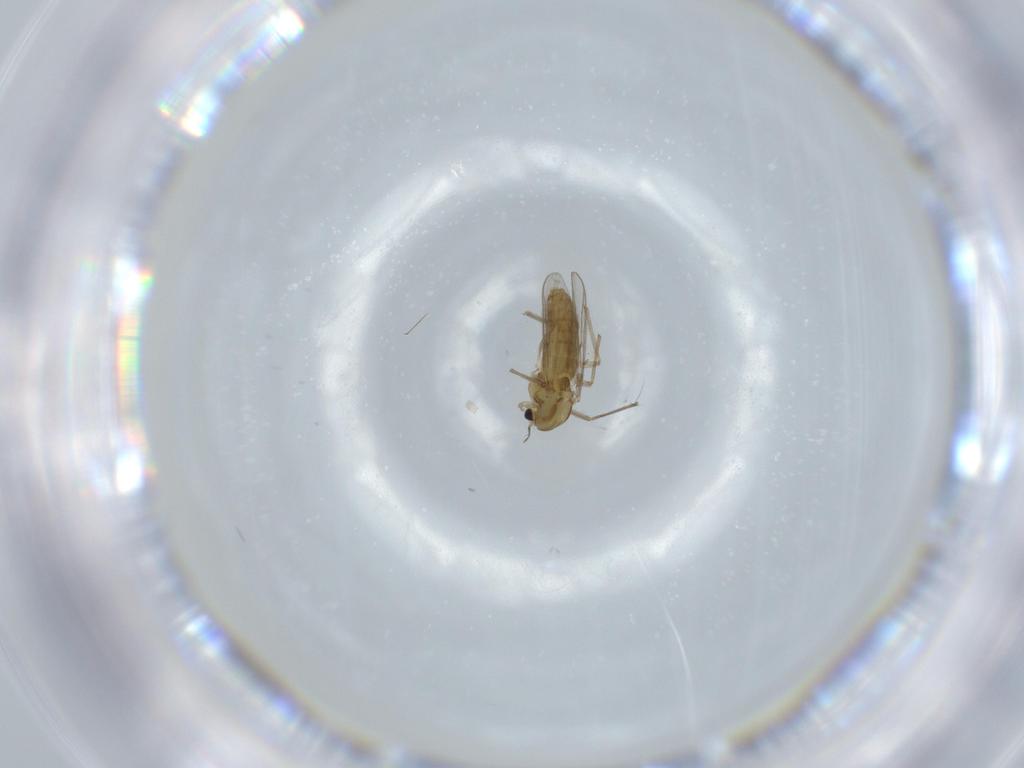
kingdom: Animalia
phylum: Arthropoda
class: Insecta
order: Diptera
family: Chironomidae
